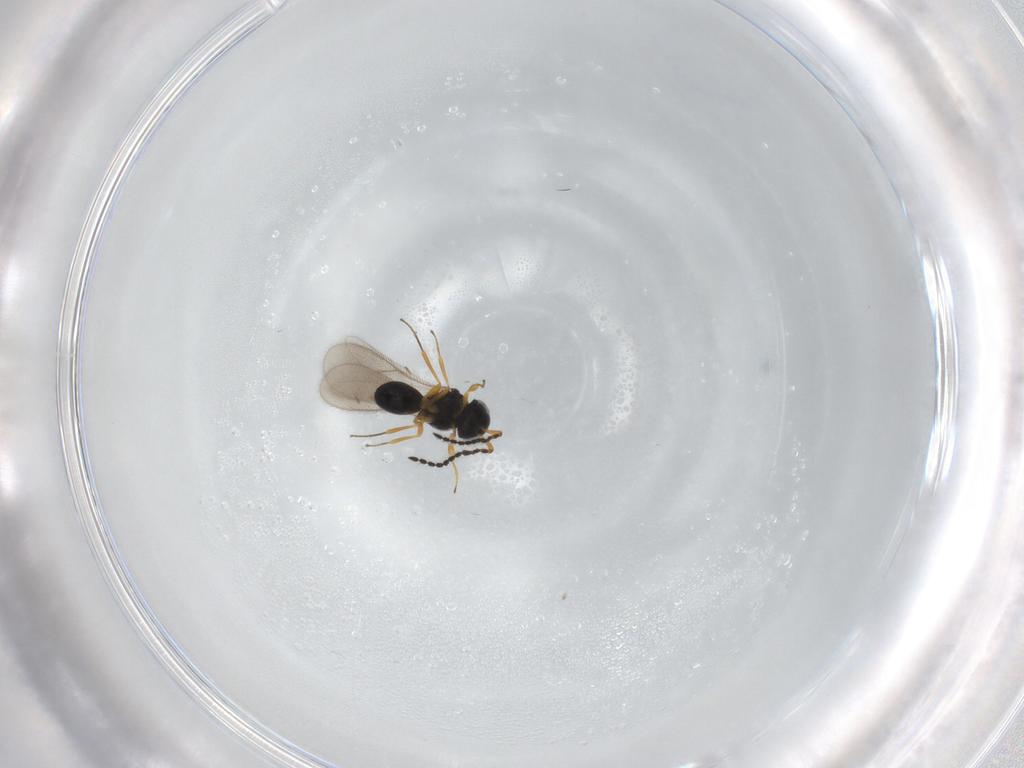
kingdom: Animalia
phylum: Arthropoda
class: Insecta
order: Hymenoptera
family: Scelionidae
